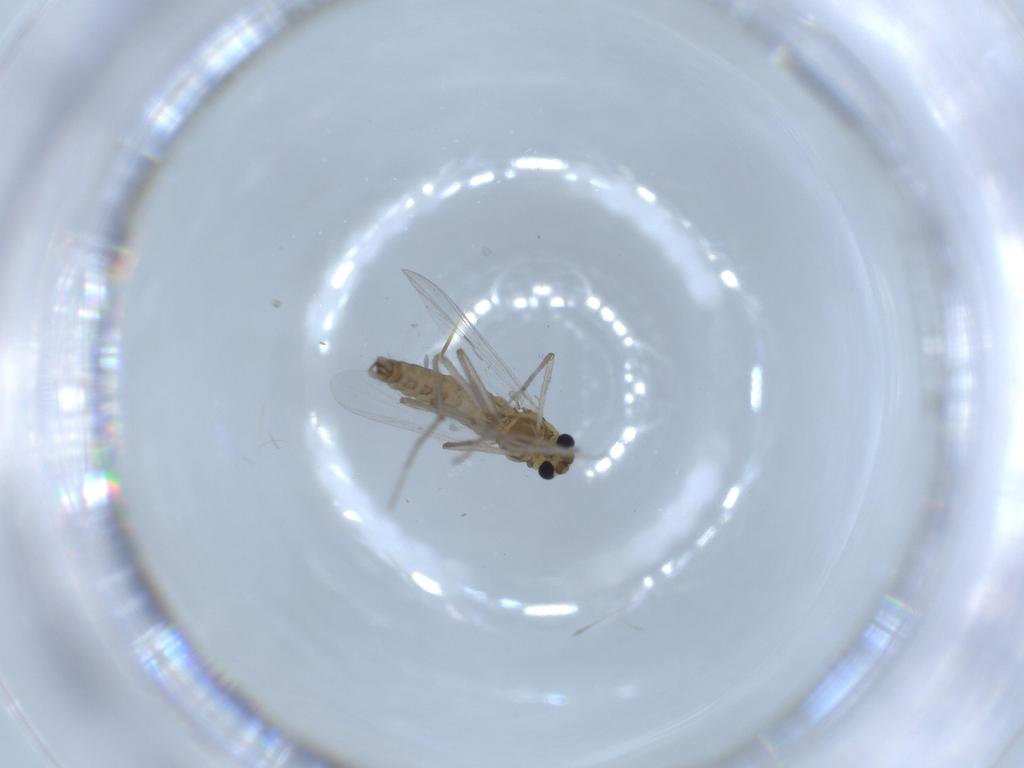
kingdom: Animalia
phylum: Arthropoda
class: Insecta
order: Diptera
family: Chironomidae
